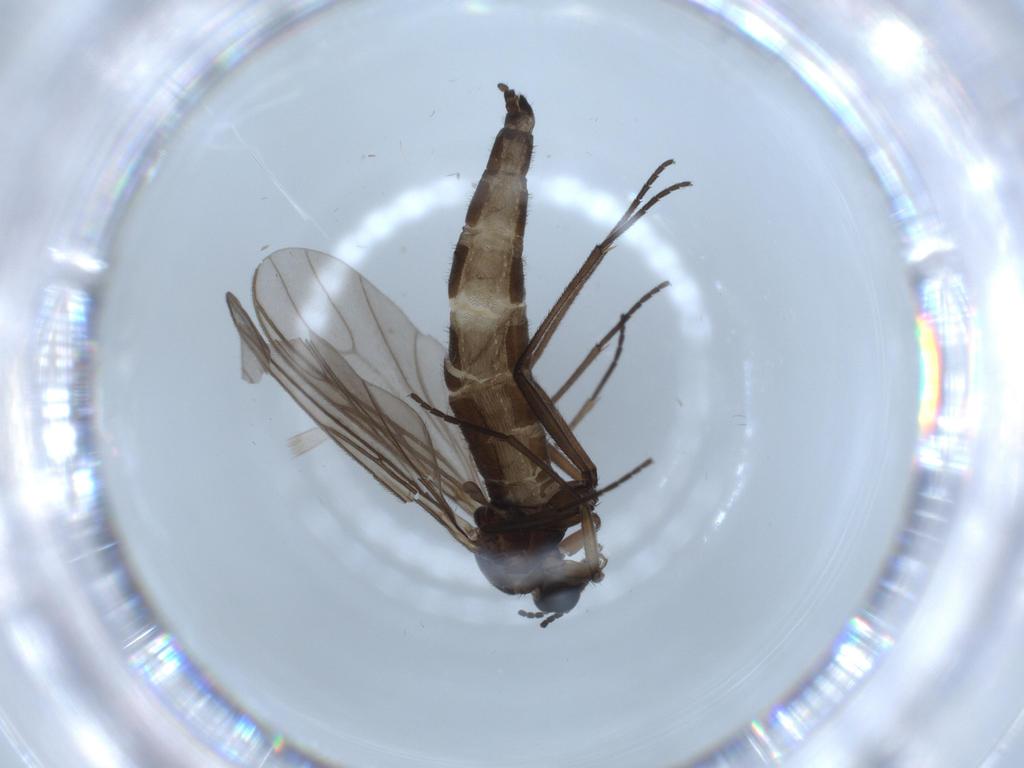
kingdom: Animalia
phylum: Arthropoda
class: Insecta
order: Diptera
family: Sciaridae
